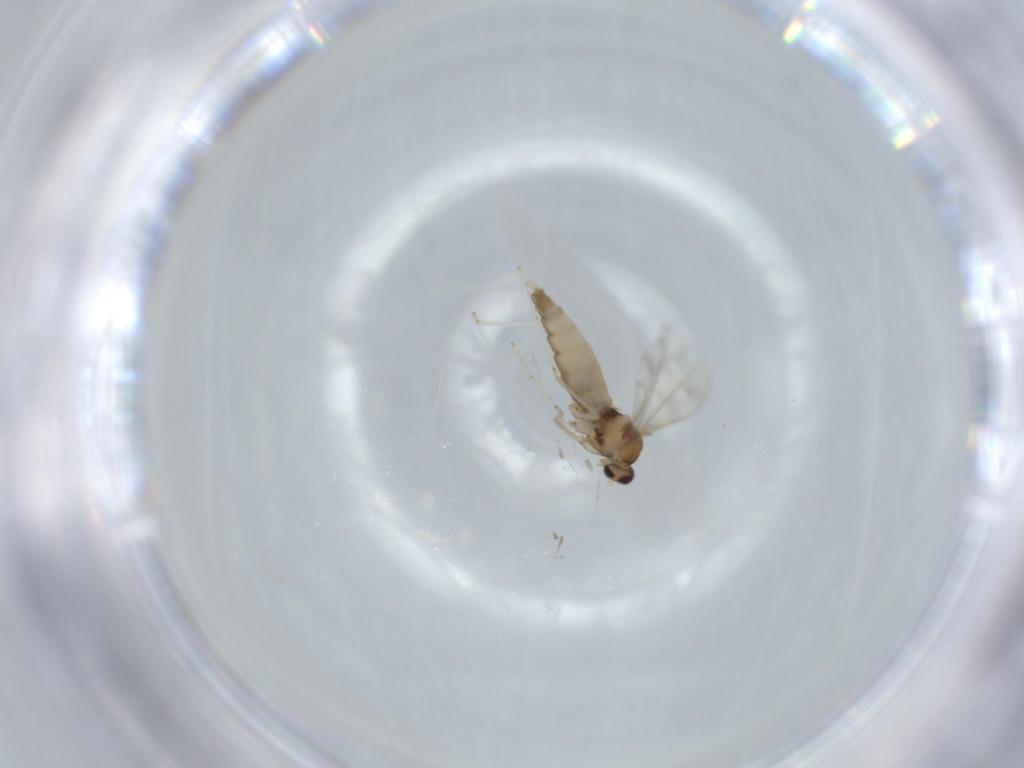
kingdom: Animalia
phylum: Arthropoda
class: Insecta
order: Diptera
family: Cecidomyiidae
